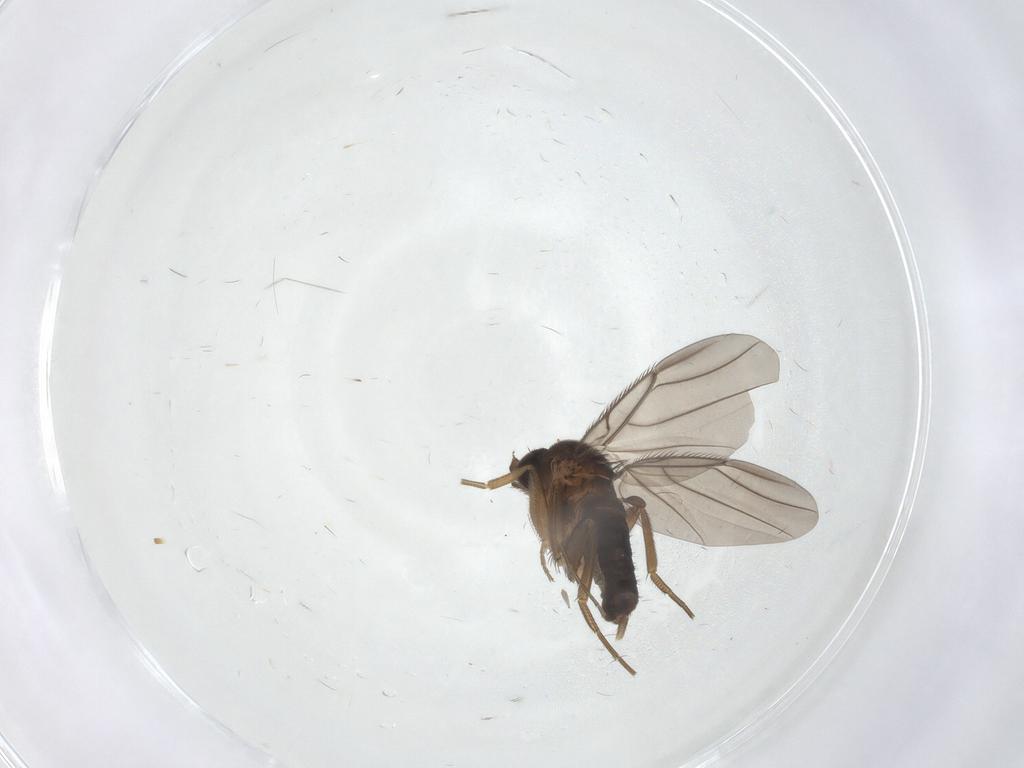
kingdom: Animalia
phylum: Arthropoda
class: Insecta
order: Diptera
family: Phoridae
